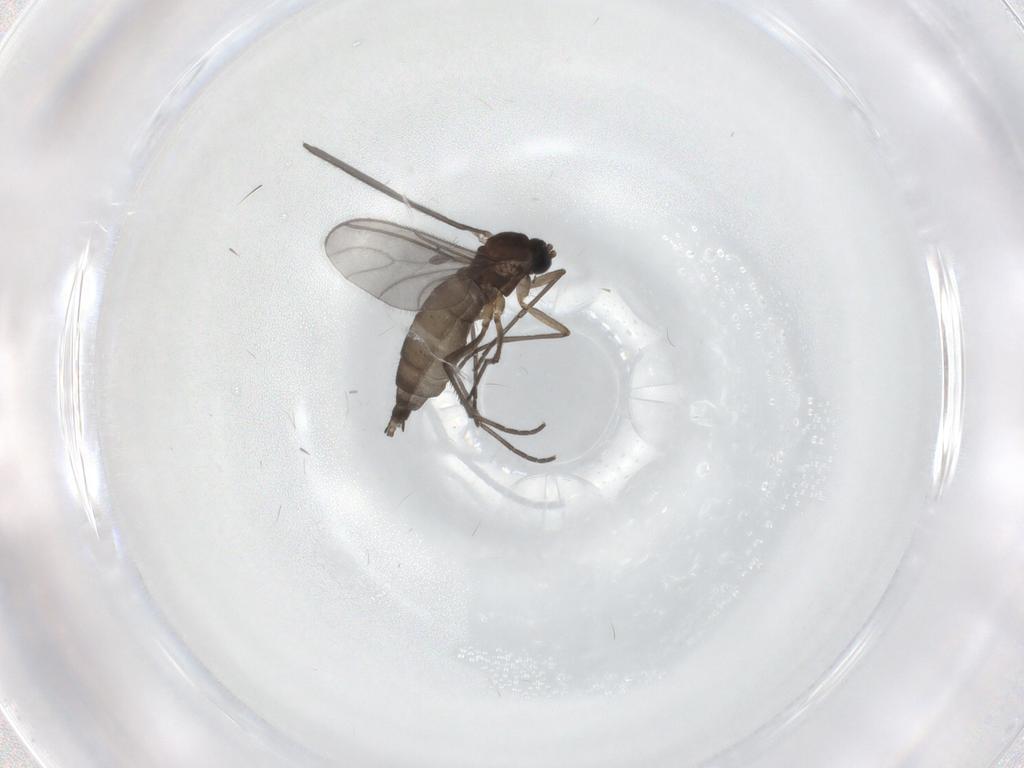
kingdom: Animalia
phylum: Arthropoda
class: Insecta
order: Diptera
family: Sciaridae
